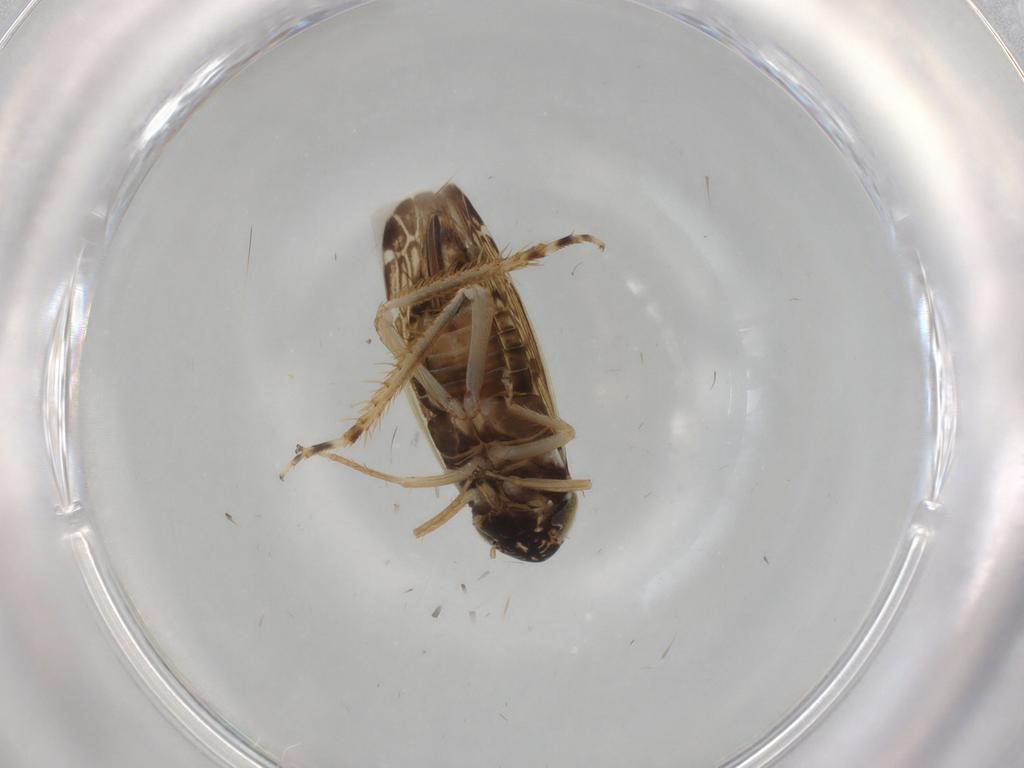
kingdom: Animalia
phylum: Arthropoda
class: Insecta
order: Hemiptera
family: Cicadellidae
